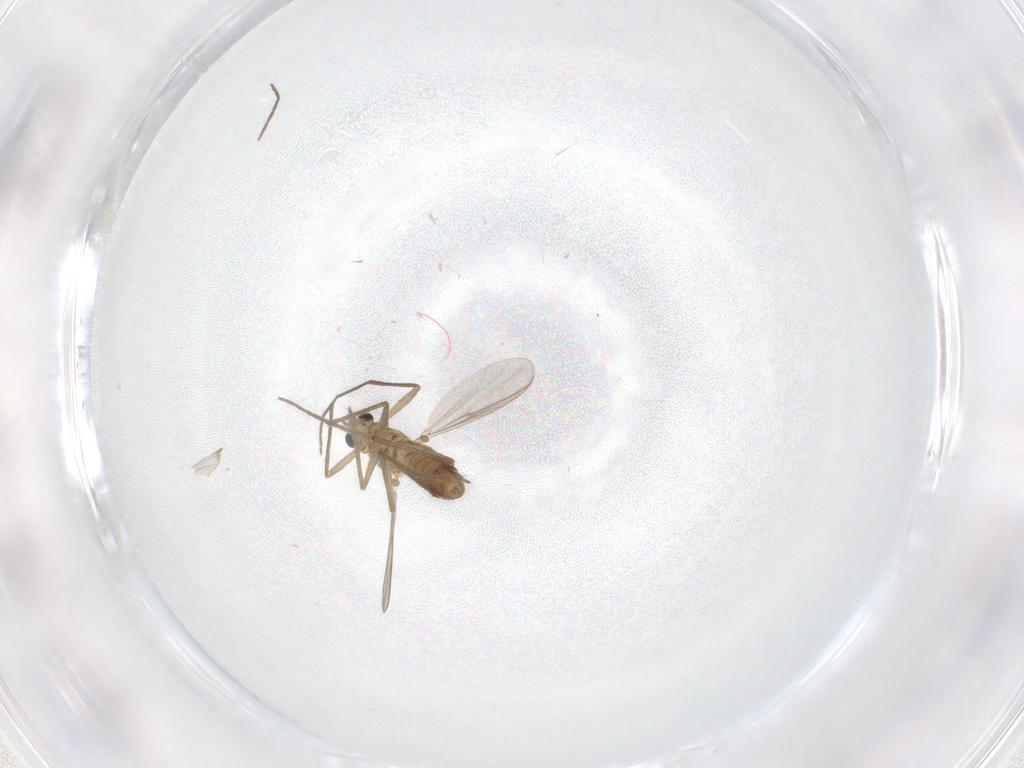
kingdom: Animalia
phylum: Arthropoda
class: Insecta
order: Diptera
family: Chironomidae
